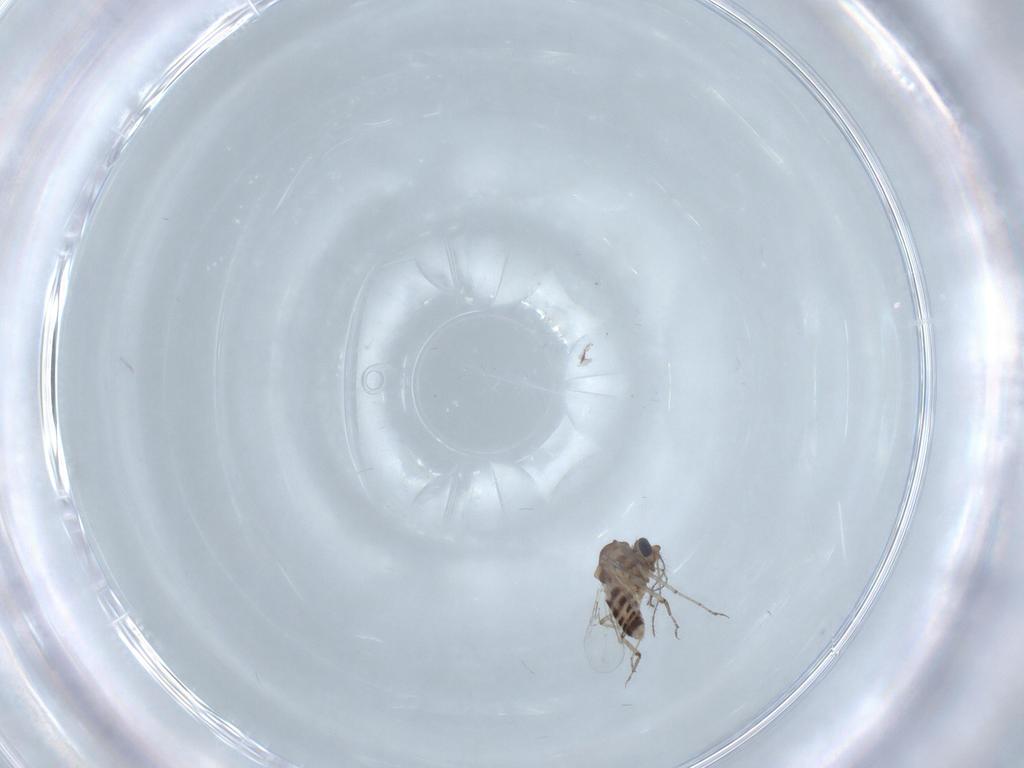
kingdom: Animalia
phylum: Arthropoda
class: Insecta
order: Diptera
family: Chironomidae
